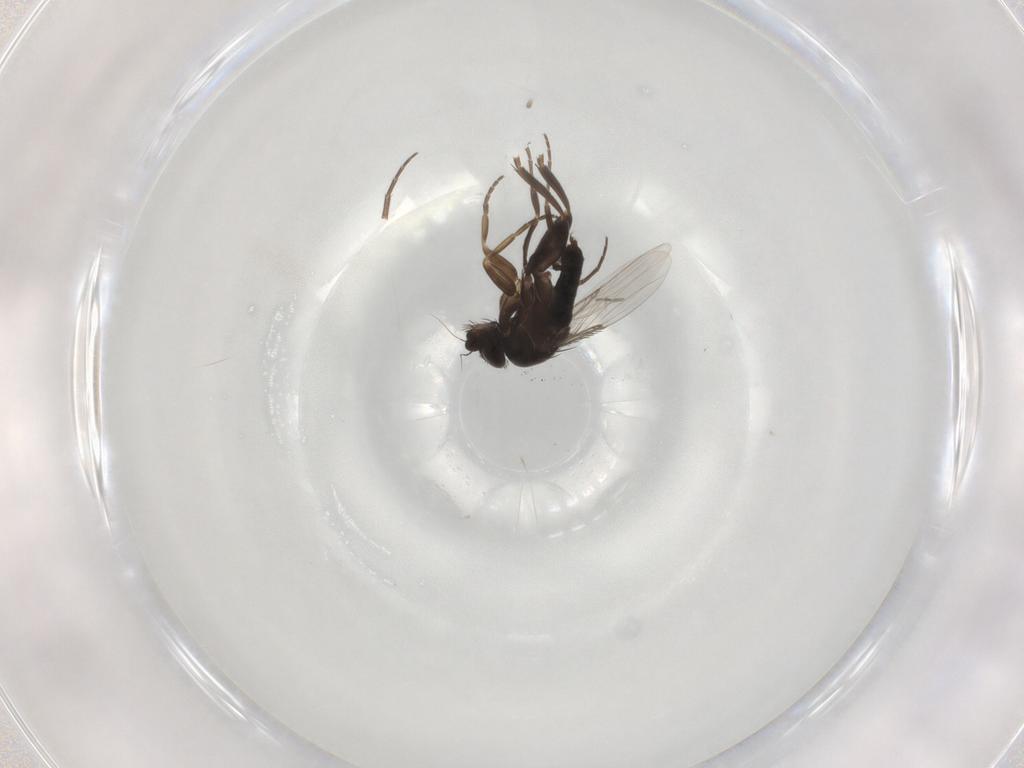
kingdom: Animalia
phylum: Arthropoda
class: Insecta
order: Diptera
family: Phoridae
